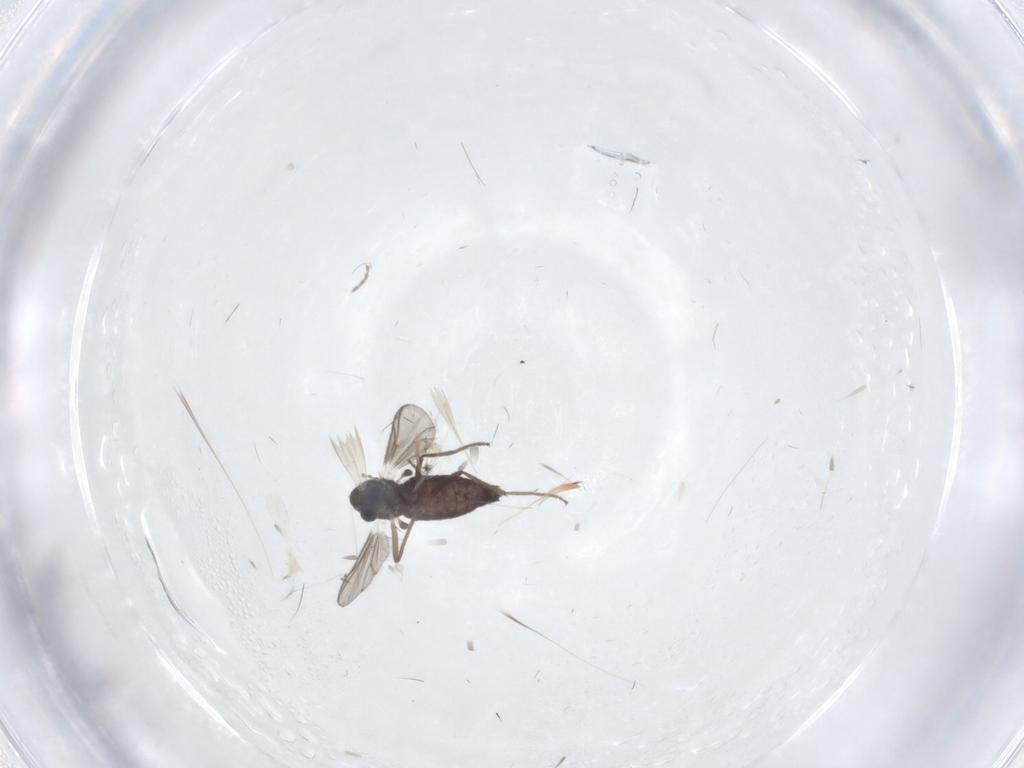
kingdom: Animalia
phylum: Arthropoda
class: Insecta
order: Diptera
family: Chironomidae
